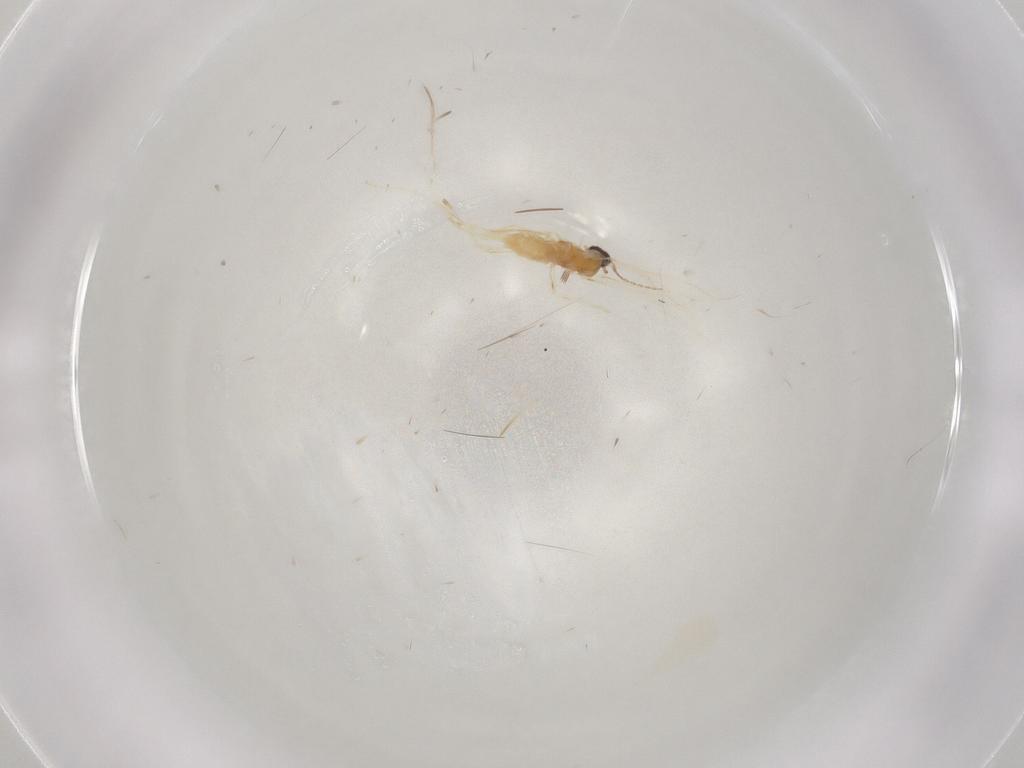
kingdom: Animalia
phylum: Arthropoda
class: Insecta
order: Diptera
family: Cecidomyiidae
